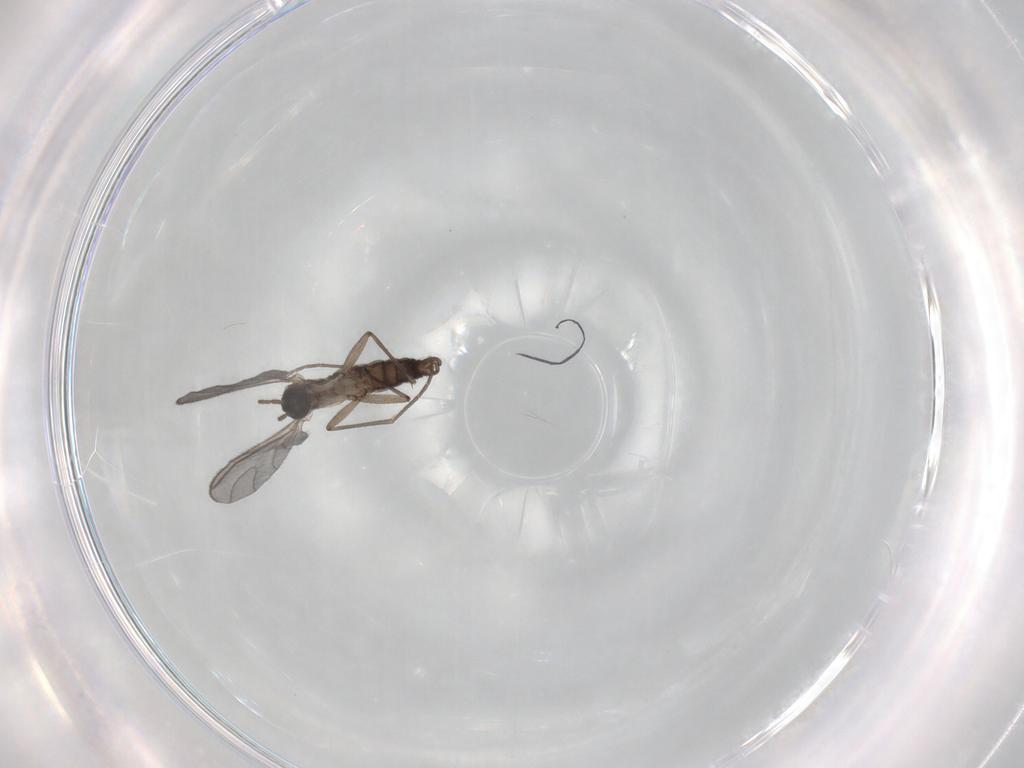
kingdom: Animalia
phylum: Arthropoda
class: Insecta
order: Diptera
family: Sciaridae
